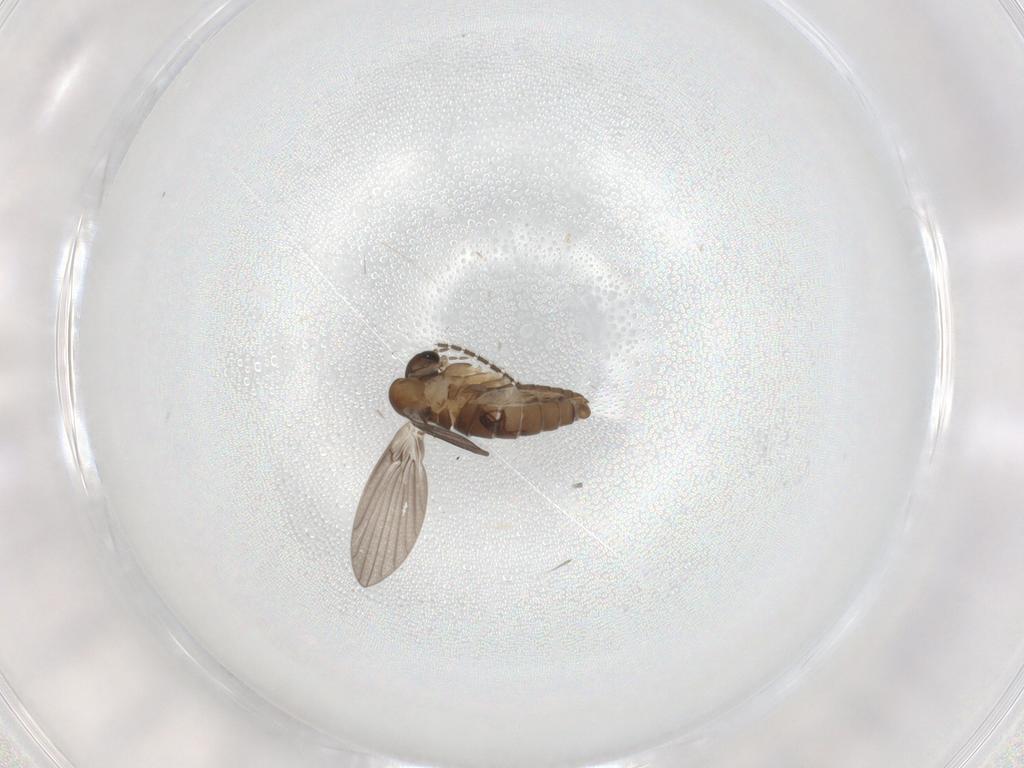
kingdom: Animalia
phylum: Arthropoda
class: Insecta
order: Diptera
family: Sciaridae
